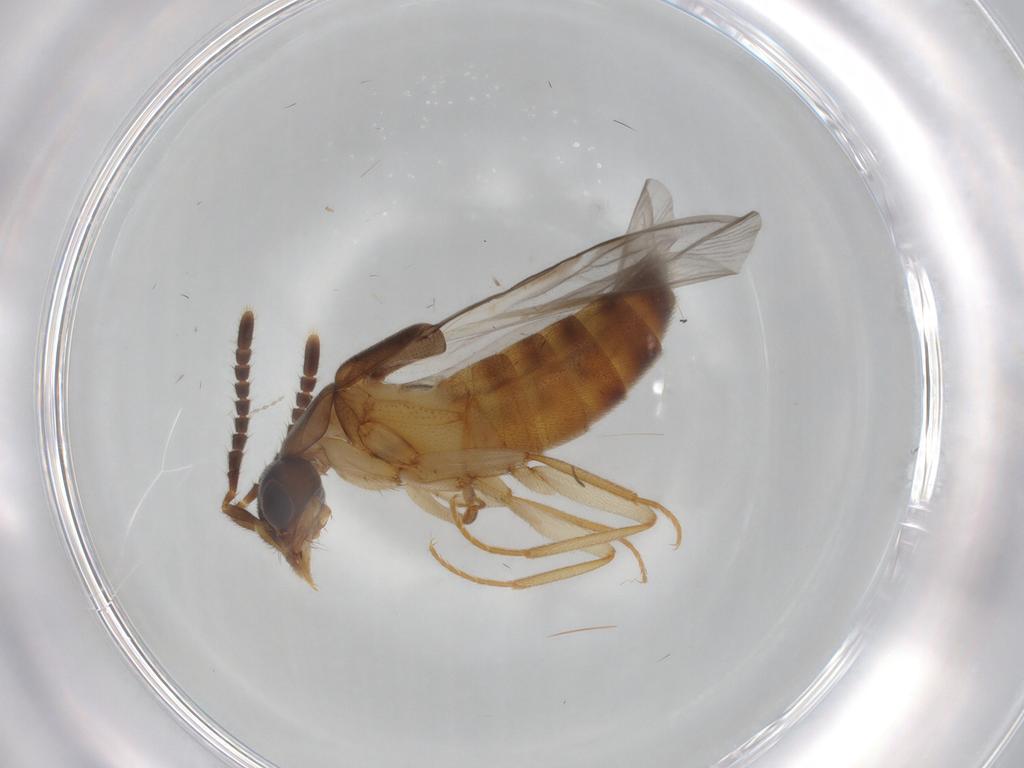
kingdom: Animalia
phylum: Arthropoda
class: Insecta
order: Coleoptera
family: Staphylinidae
